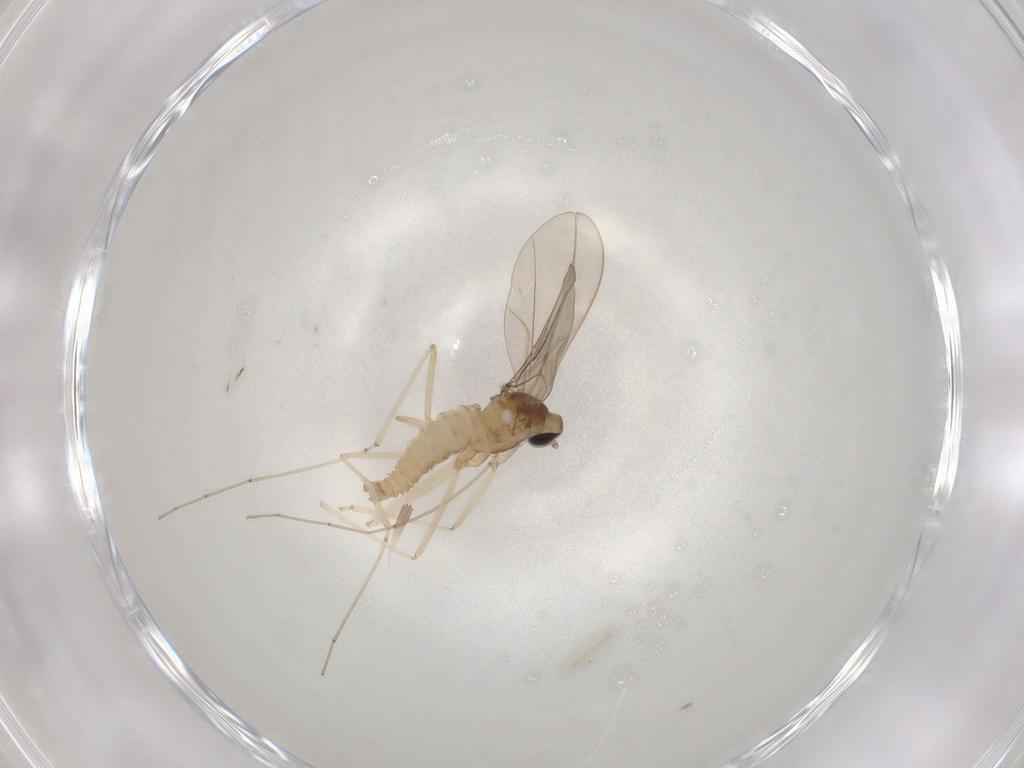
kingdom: Animalia
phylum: Arthropoda
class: Insecta
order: Diptera
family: Cecidomyiidae
